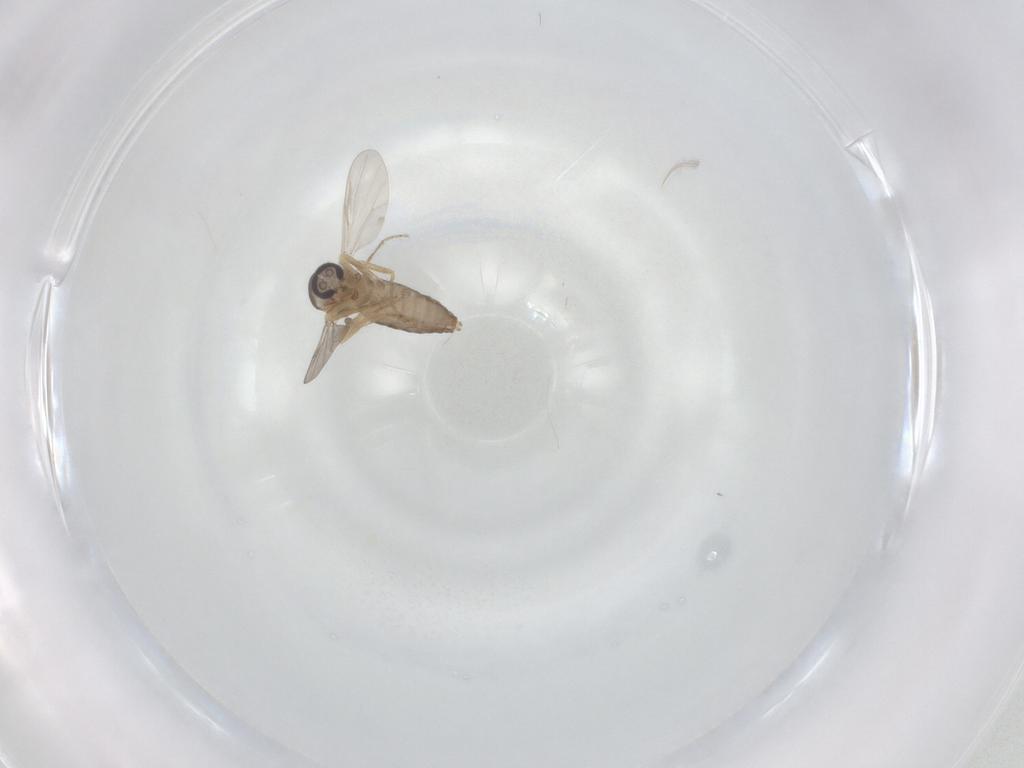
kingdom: Animalia
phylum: Arthropoda
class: Insecta
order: Diptera
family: Ceratopogonidae
